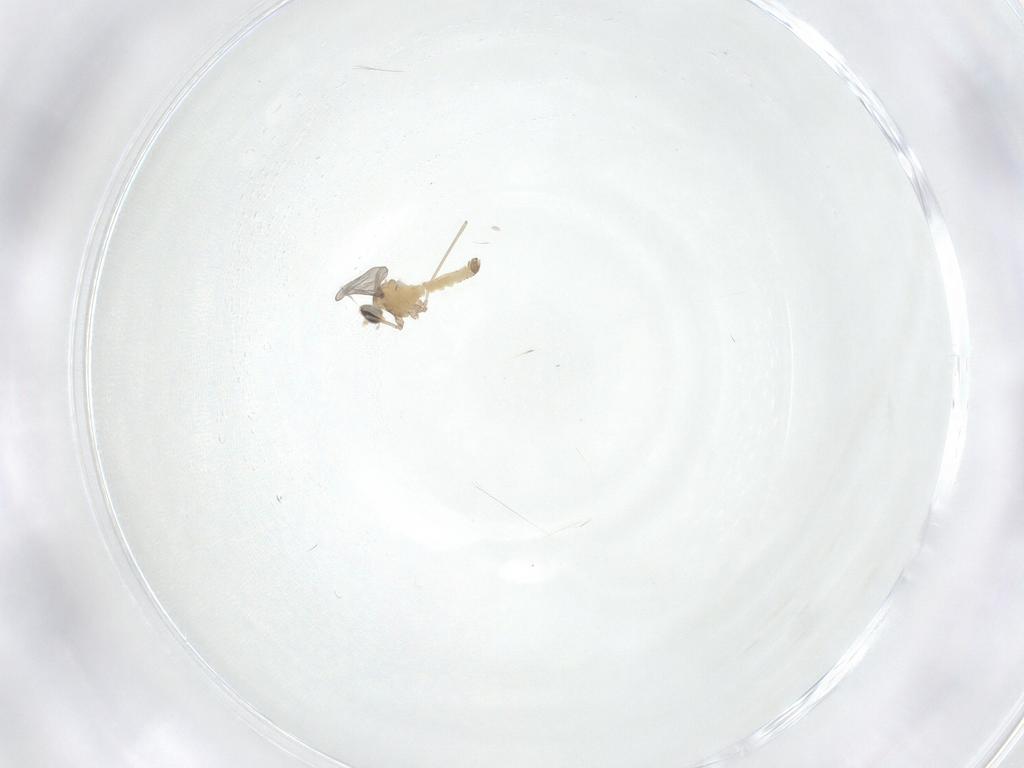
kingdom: Animalia
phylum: Arthropoda
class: Insecta
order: Diptera
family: Cecidomyiidae
